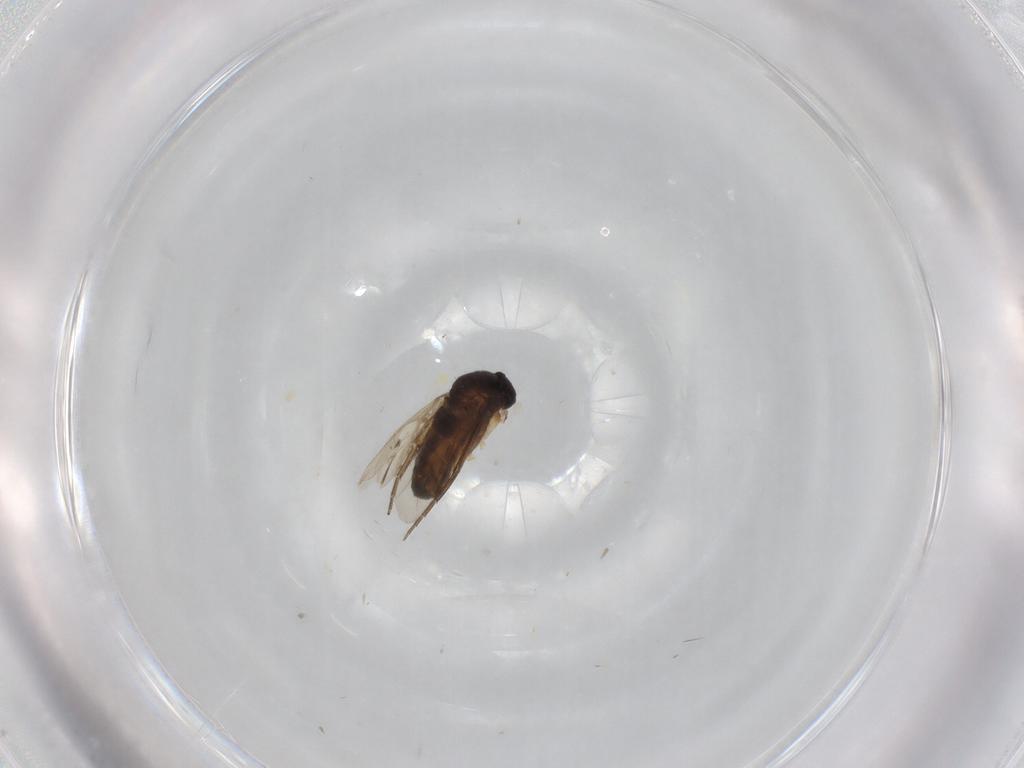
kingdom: Animalia
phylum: Arthropoda
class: Insecta
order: Diptera
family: Chironomidae
